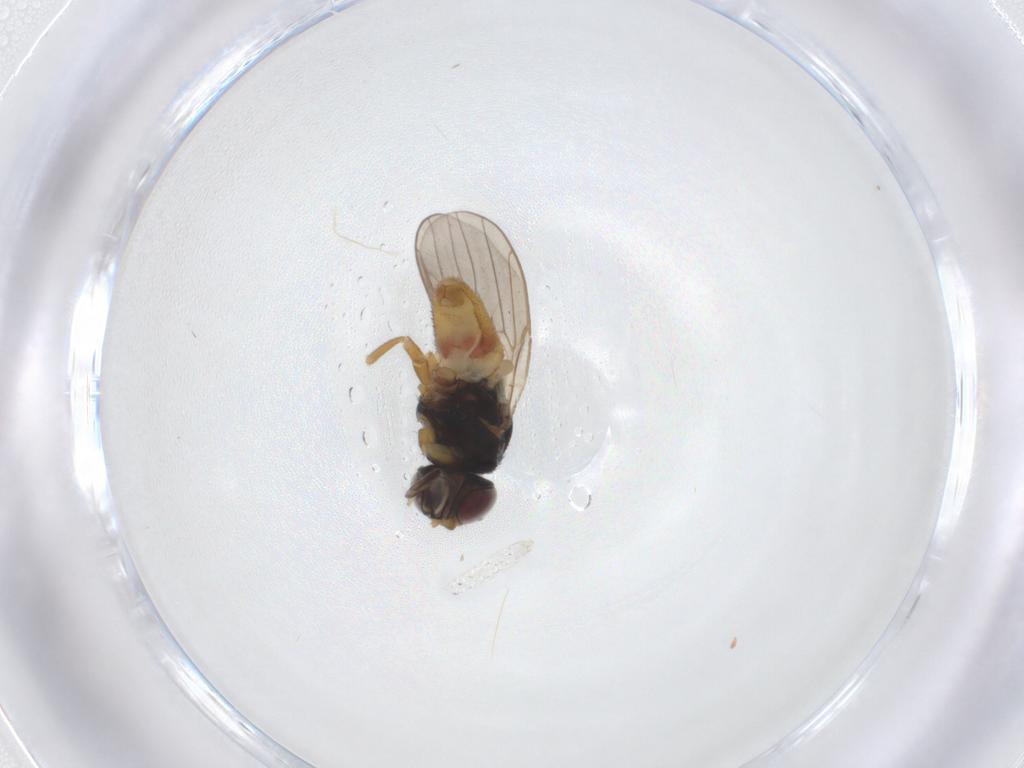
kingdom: Animalia
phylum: Arthropoda
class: Insecta
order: Diptera
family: Chloropidae
